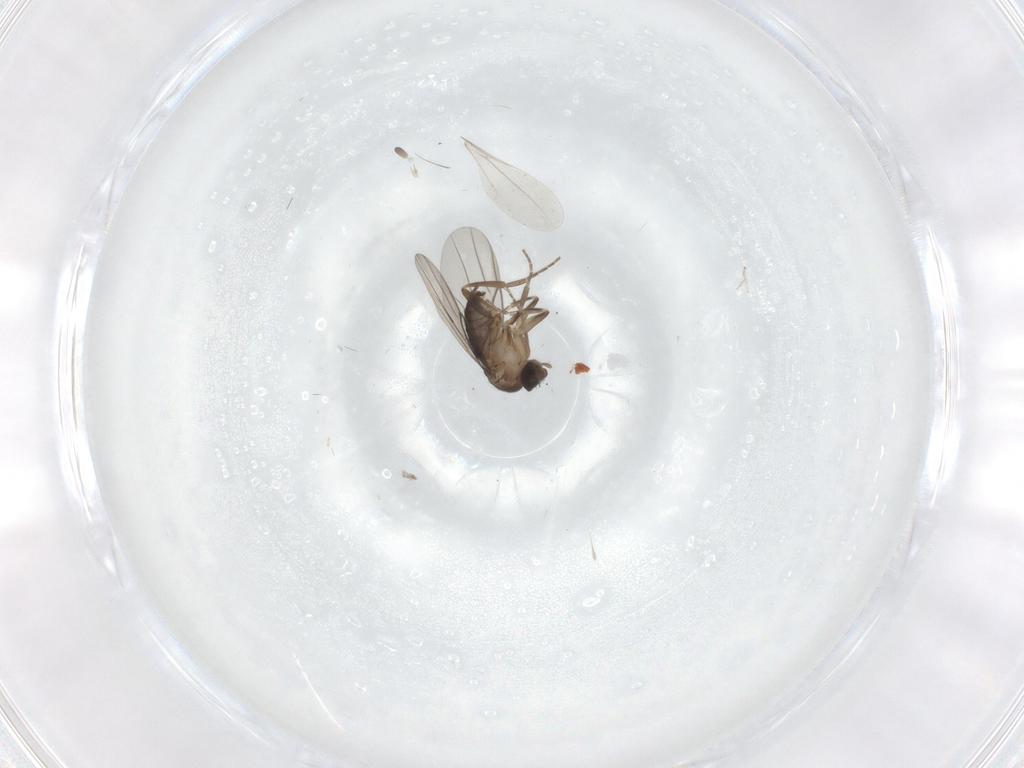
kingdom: Animalia
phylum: Arthropoda
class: Insecta
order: Diptera
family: Phoridae
